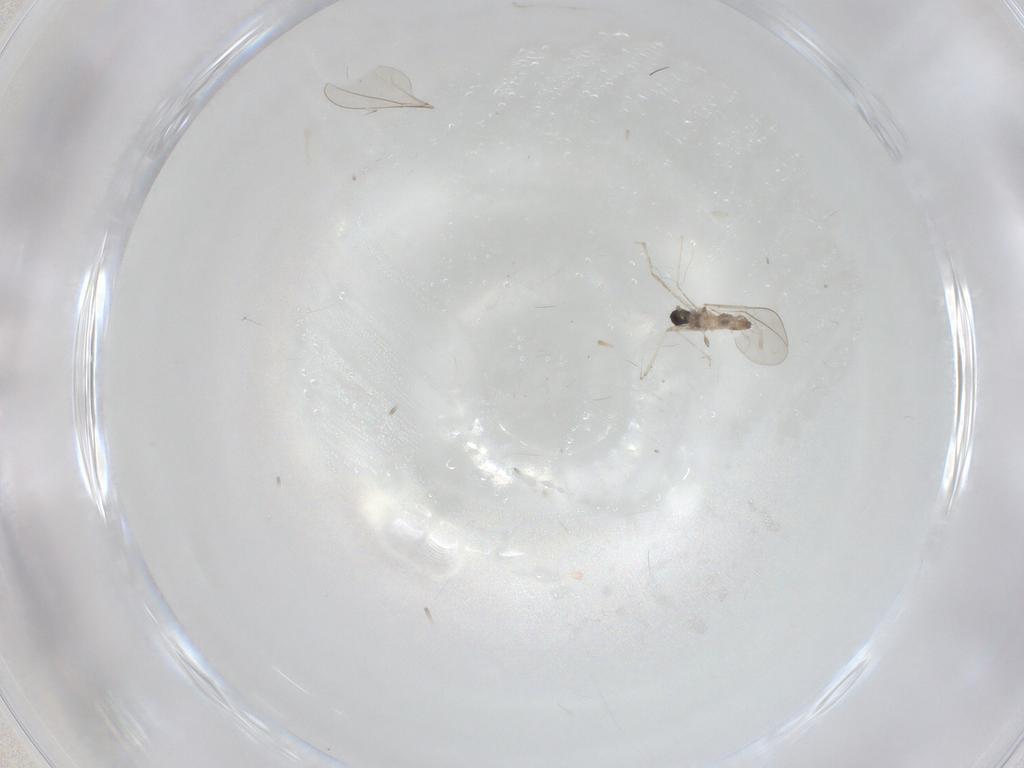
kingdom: Animalia
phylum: Arthropoda
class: Insecta
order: Diptera
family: Cecidomyiidae
